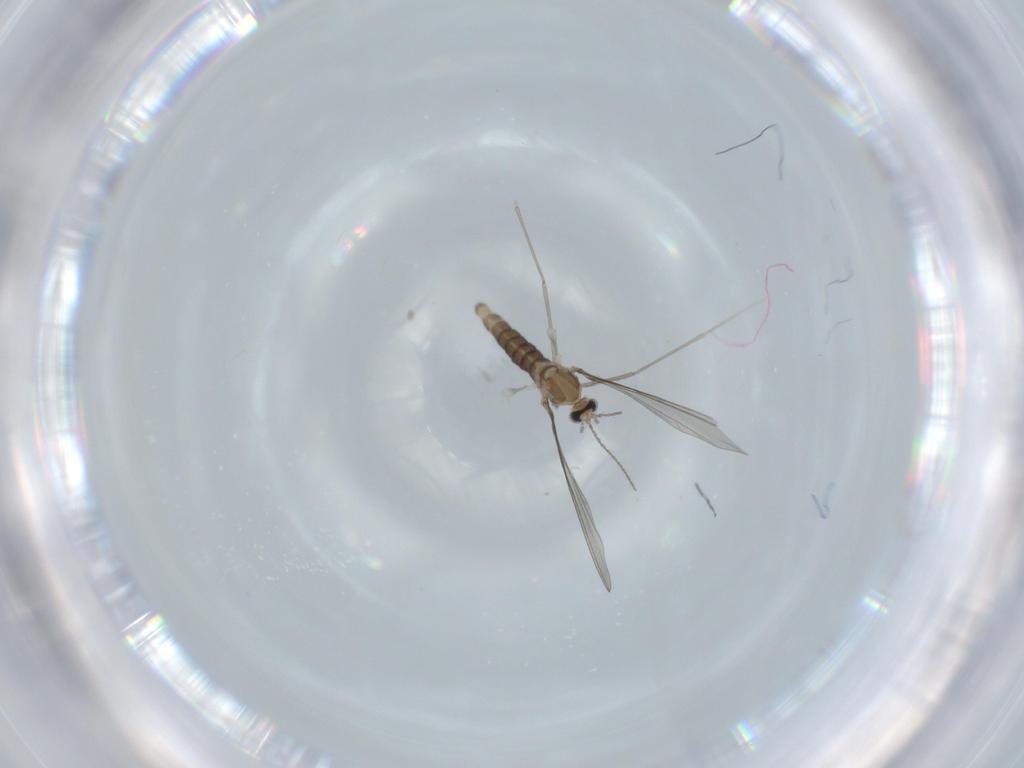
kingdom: Animalia
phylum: Arthropoda
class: Insecta
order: Diptera
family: Cecidomyiidae
